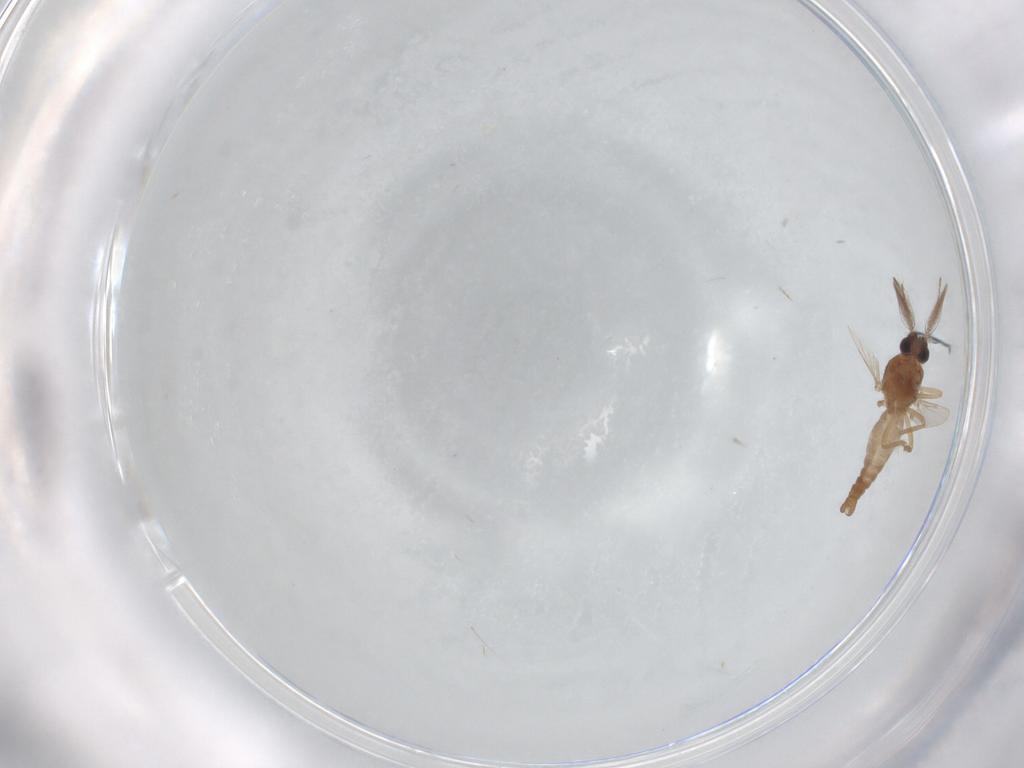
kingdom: Animalia
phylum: Arthropoda
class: Insecta
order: Diptera
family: Ceratopogonidae
